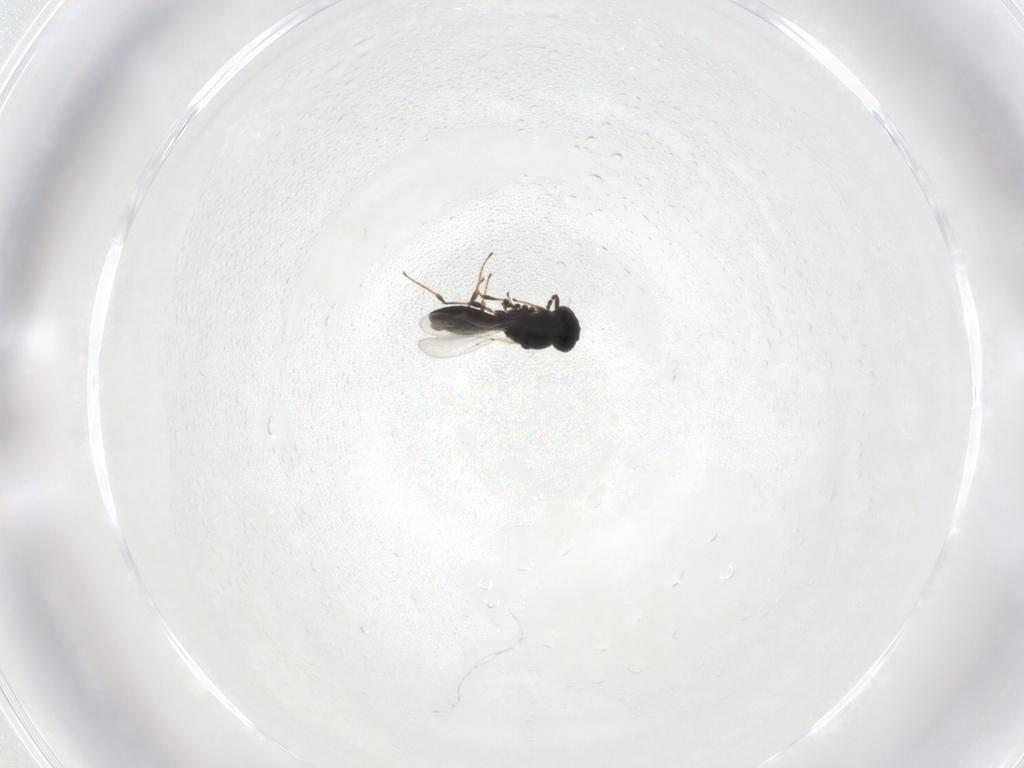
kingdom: Animalia
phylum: Arthropoda
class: Insecta
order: Hymenoptera
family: Platygastridae
